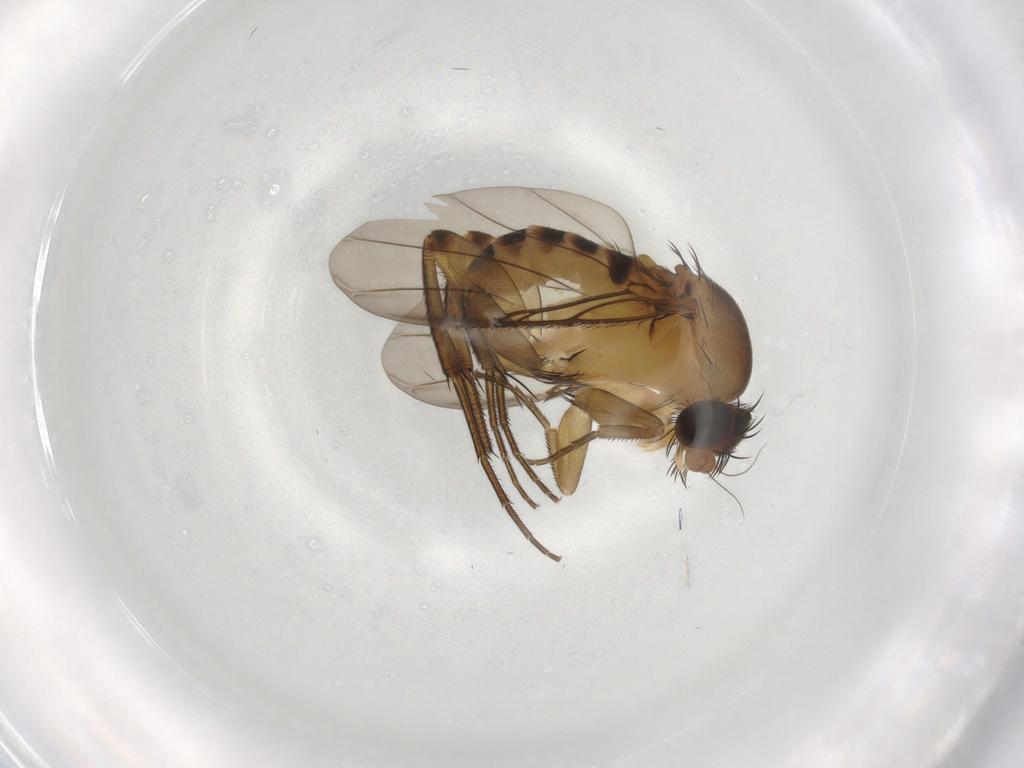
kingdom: Animalia
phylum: Arthropoda
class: Insecta
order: Diptera
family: Phoridae
